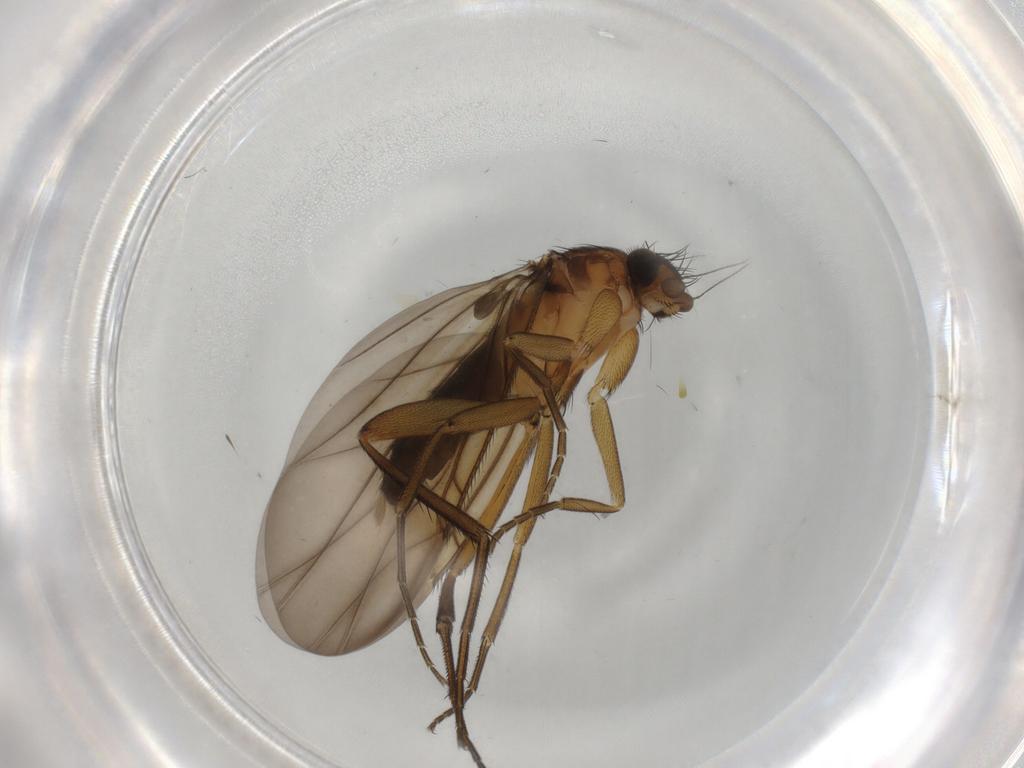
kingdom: Animalia
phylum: Arthropoda
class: Insecta
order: Diptera
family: Phoridae
